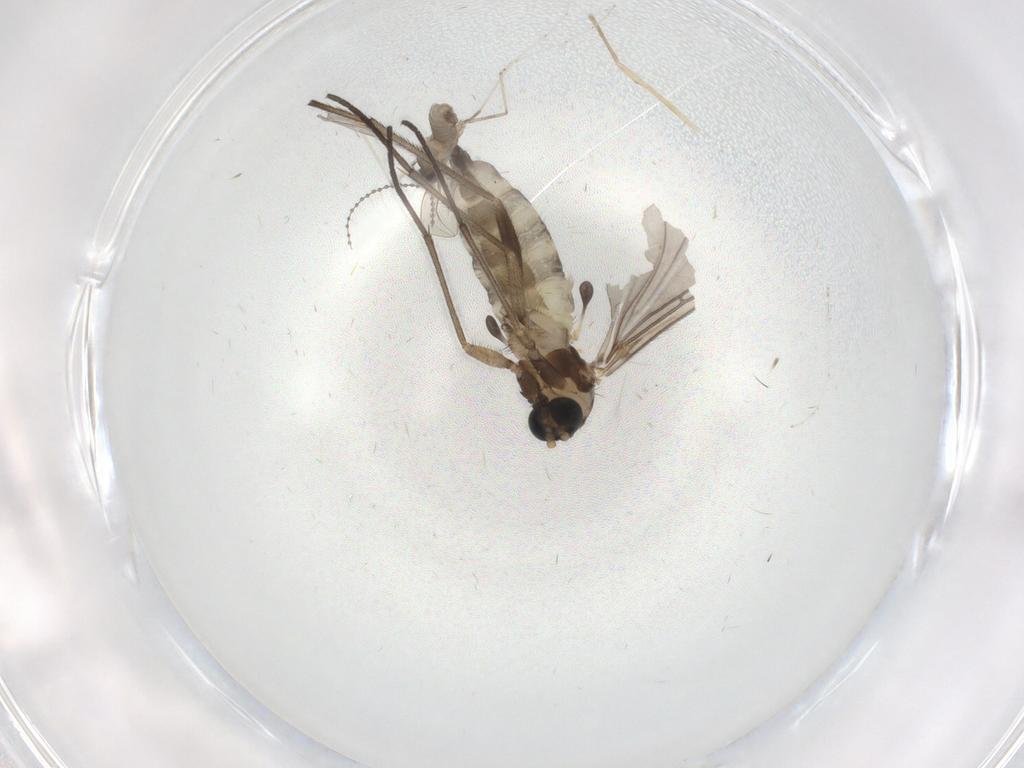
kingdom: Animalia
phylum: Arthropoda
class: Insecta
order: Diptera
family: Sciaridae
